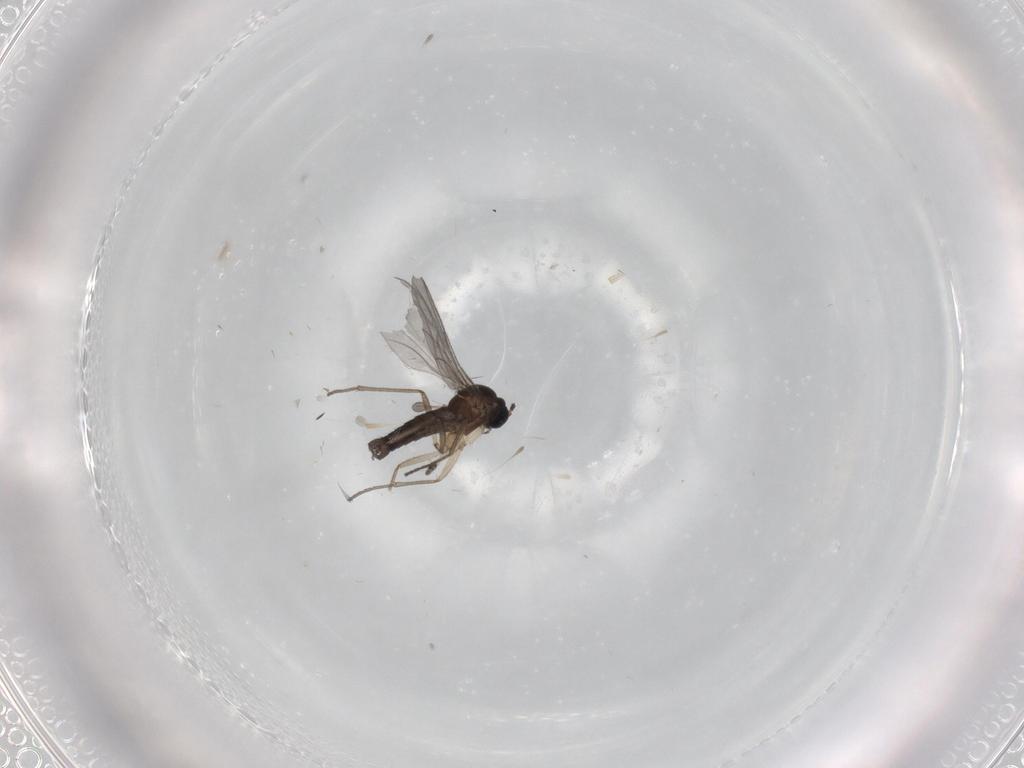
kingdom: Animalia
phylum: Arthropoda
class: Insecta
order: Diptera
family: Sciaridae
